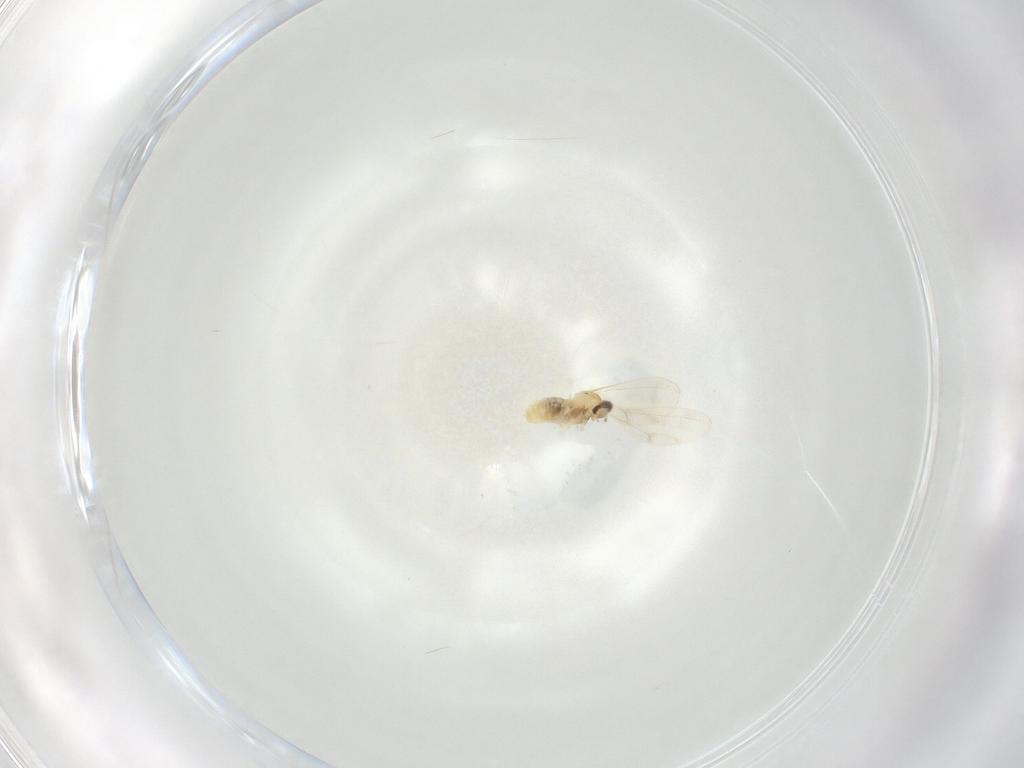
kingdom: Animalia
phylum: Arthropoda
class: Insecta
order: Diptera
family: Cecidomyiidae
